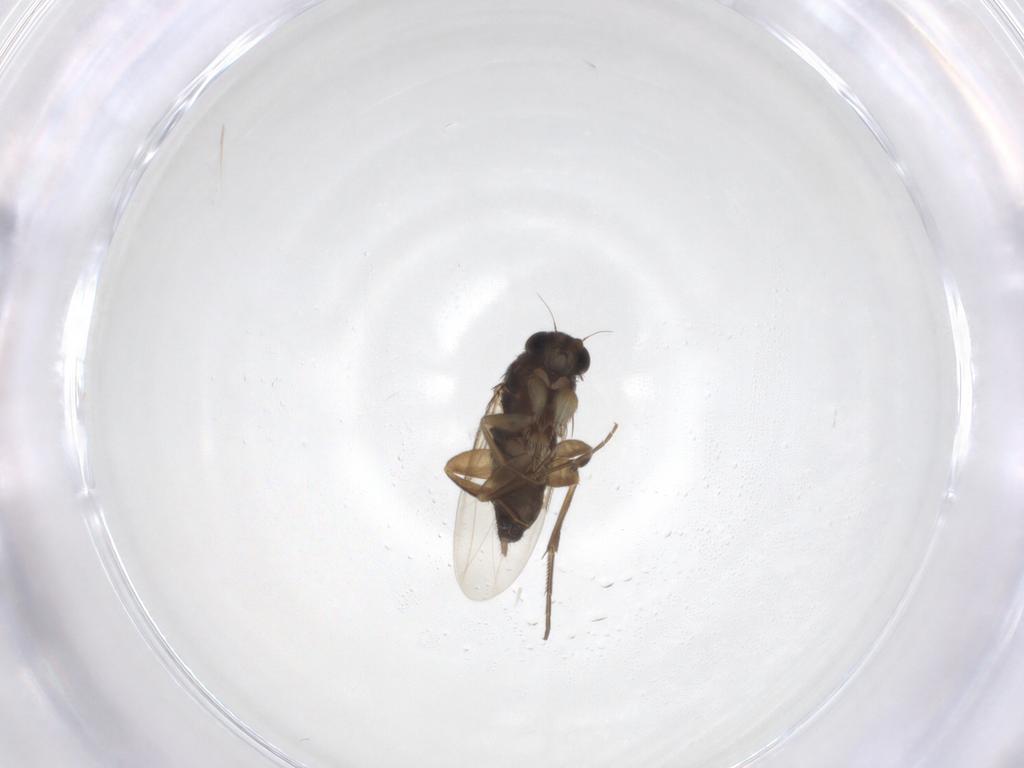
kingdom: Animalia
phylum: Arthropoda
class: Insecta
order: Diptera
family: Phoridae
